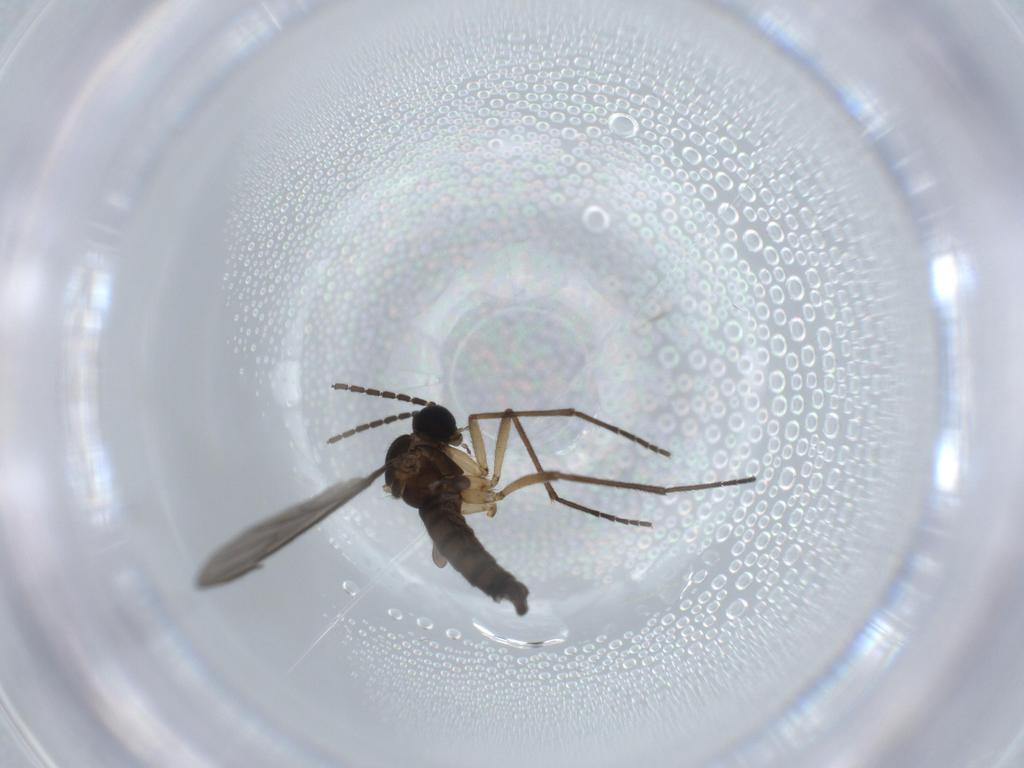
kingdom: Animalia
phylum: Arthropoda
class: Insecta
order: Diptera
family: Sciaridae
